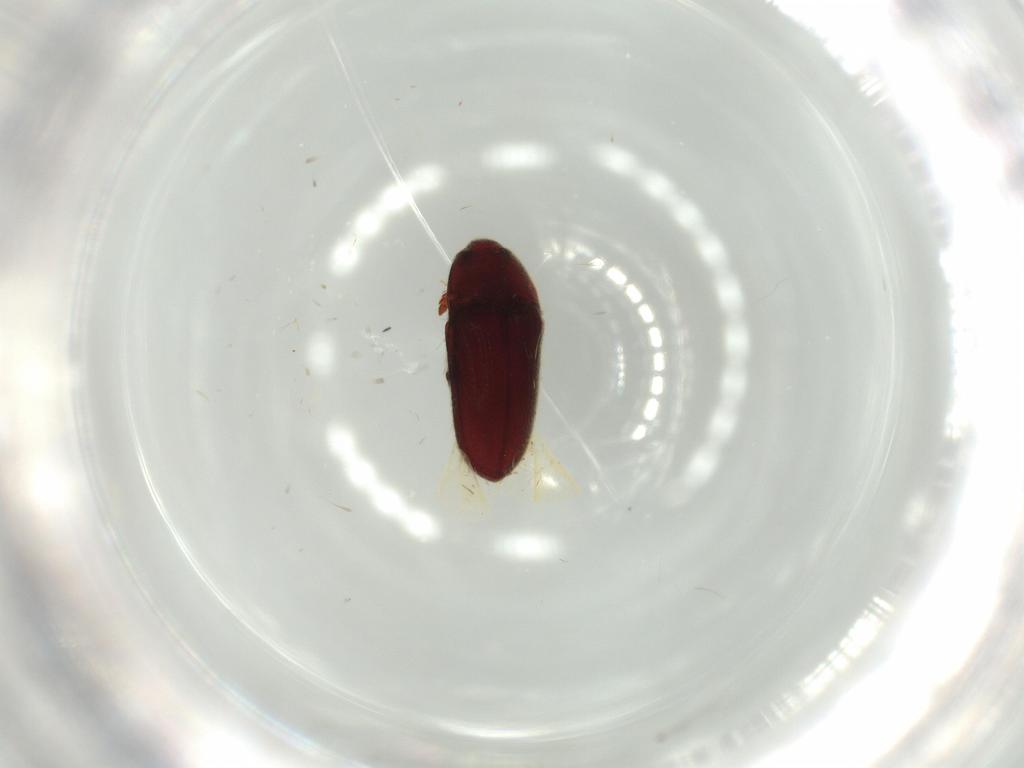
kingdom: Animalia
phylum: Arthropoda
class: Insecta
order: Coleoptera
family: Throscidae
